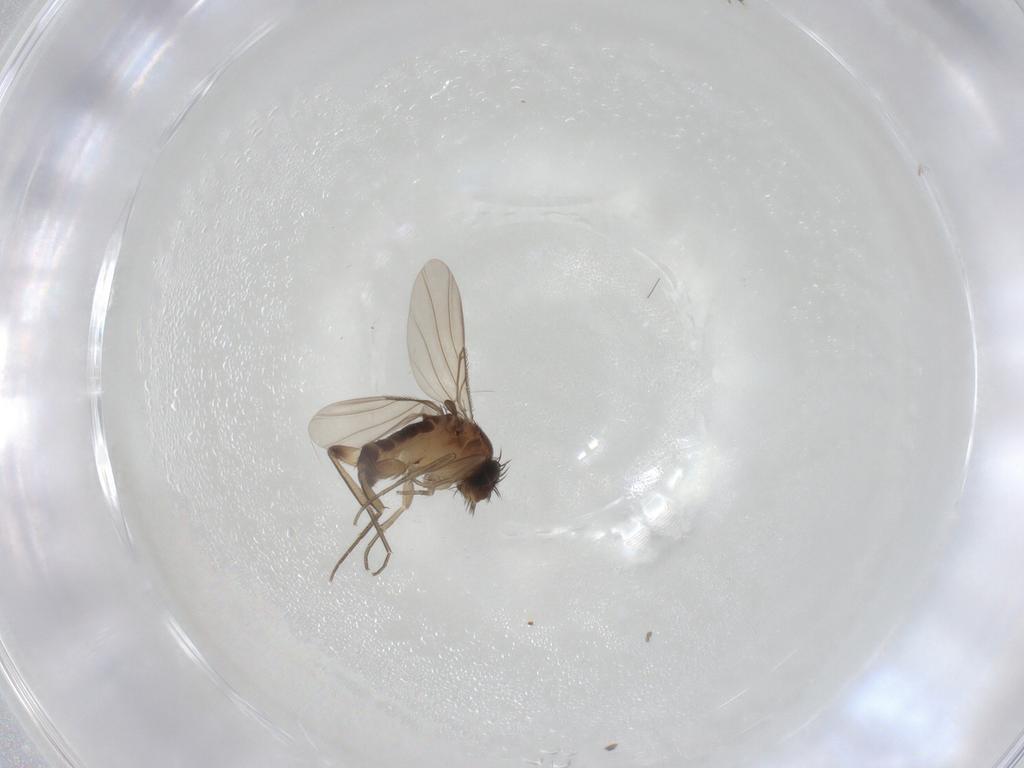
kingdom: Animalia
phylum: Arthropoda
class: Insecta
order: Diptera
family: Phoridae
